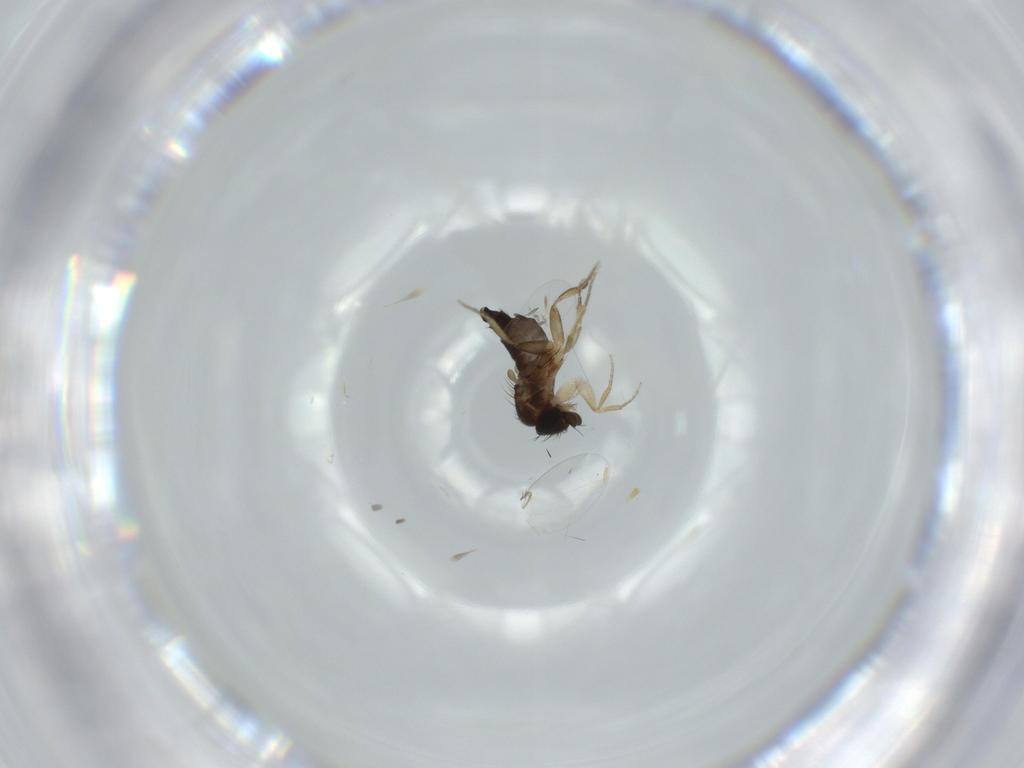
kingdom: Animalia
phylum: Arthropoda
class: Insecta
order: Diptera
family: Phoridae
